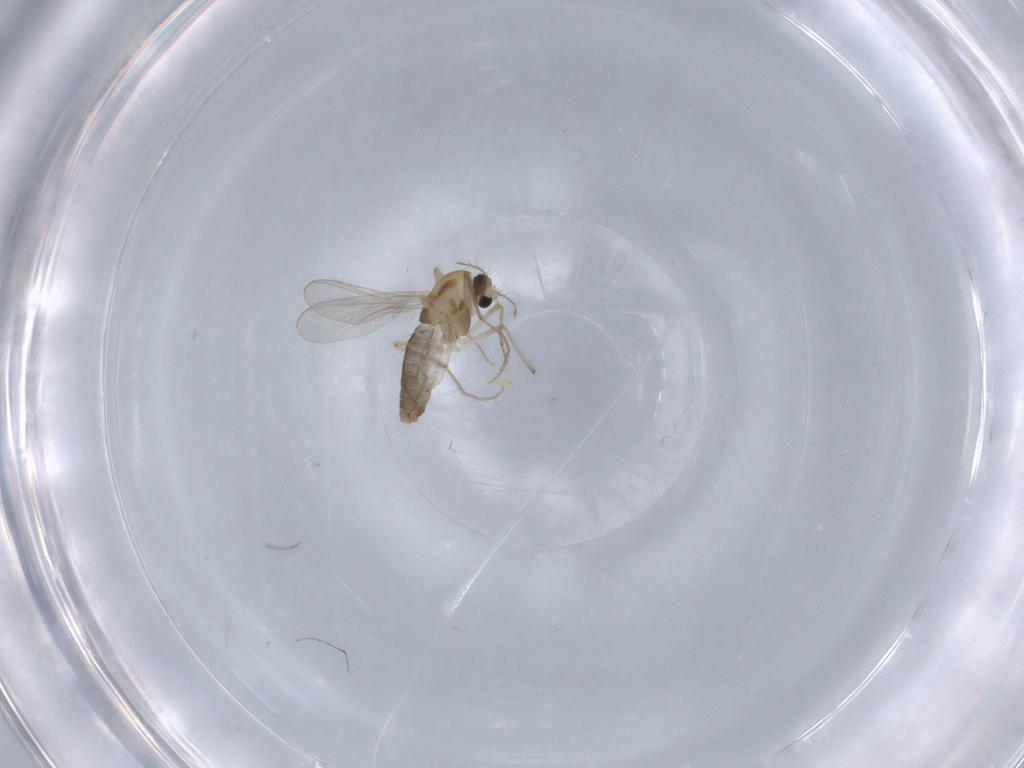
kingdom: Animalia
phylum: Arthropoda
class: Insecta
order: Diptera
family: Chironomidae
